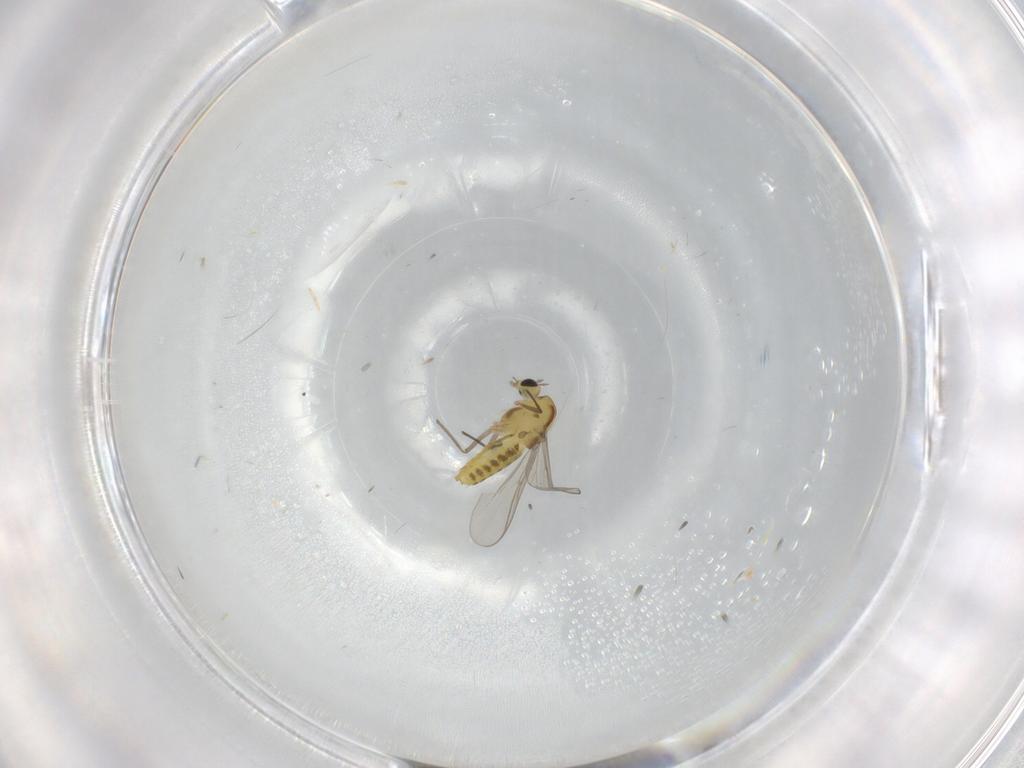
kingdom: Animalia
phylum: Arthropoda
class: Insecta
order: Diptera
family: Chironomidae
